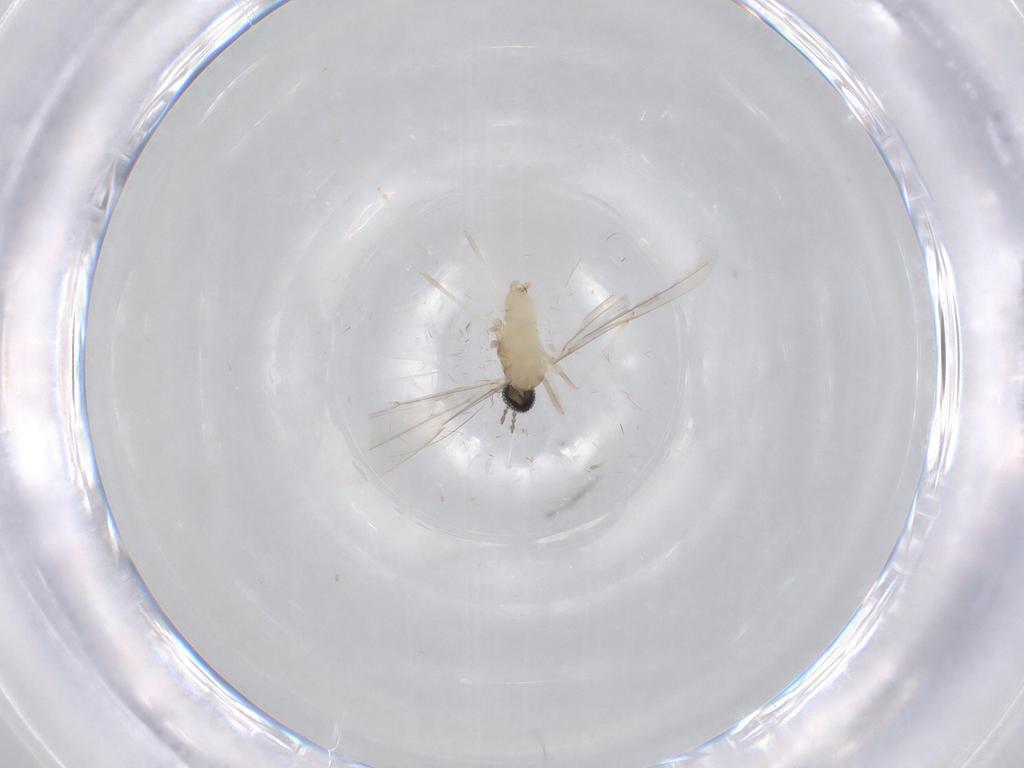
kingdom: Animalia
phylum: Arthropoda
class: Insecta
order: Diptera
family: Cecidomyiidae
